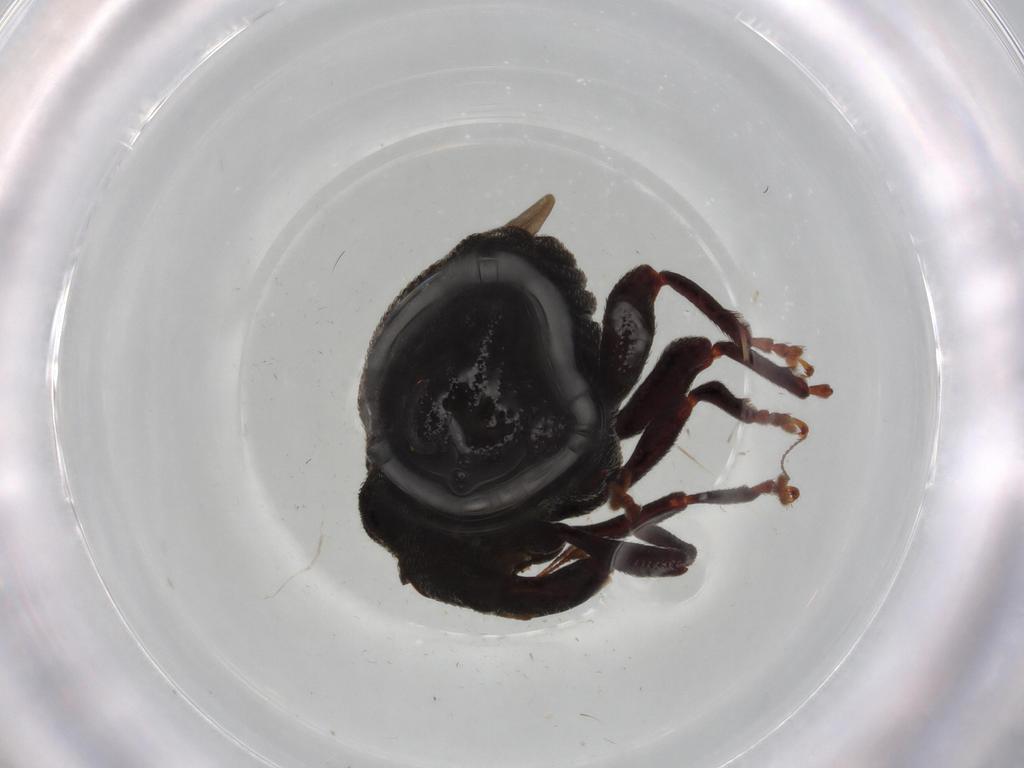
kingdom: Animalia
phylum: Arthropoda
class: Insecta
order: Coleoptera
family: Curculionidae
